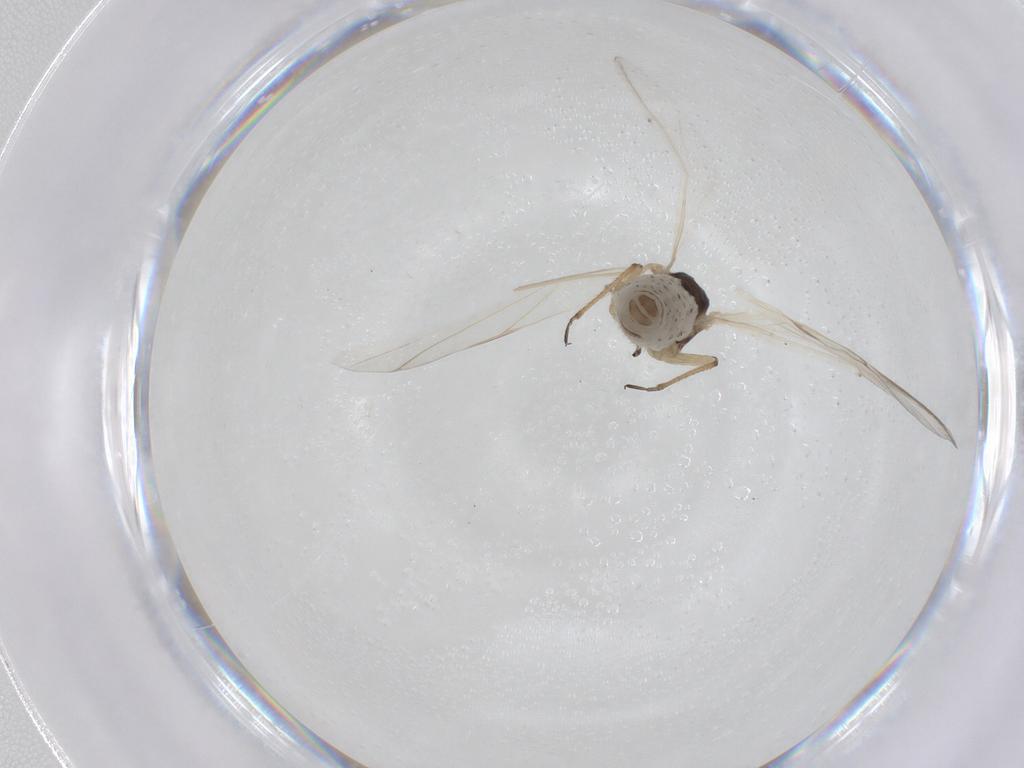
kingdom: Animalia
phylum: Arthropoda
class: Insecta
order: Hemiptera
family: Aphididae
